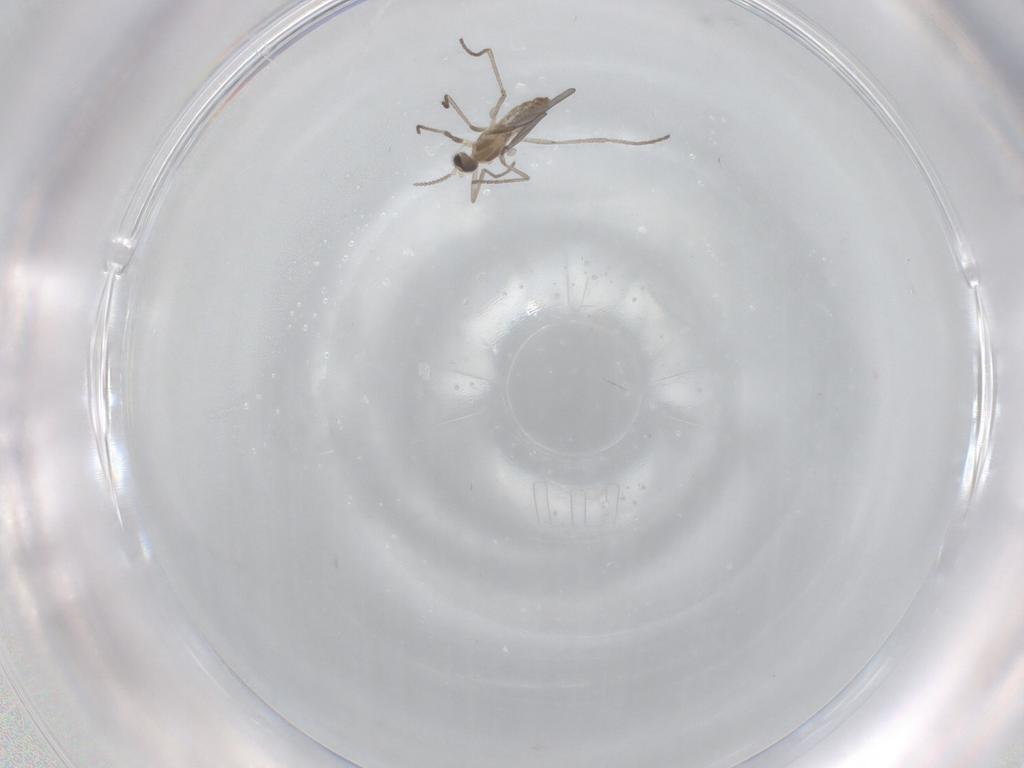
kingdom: Animalia
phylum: Arthropoda
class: Insecta
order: Diptera
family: Cecidomyiidae
